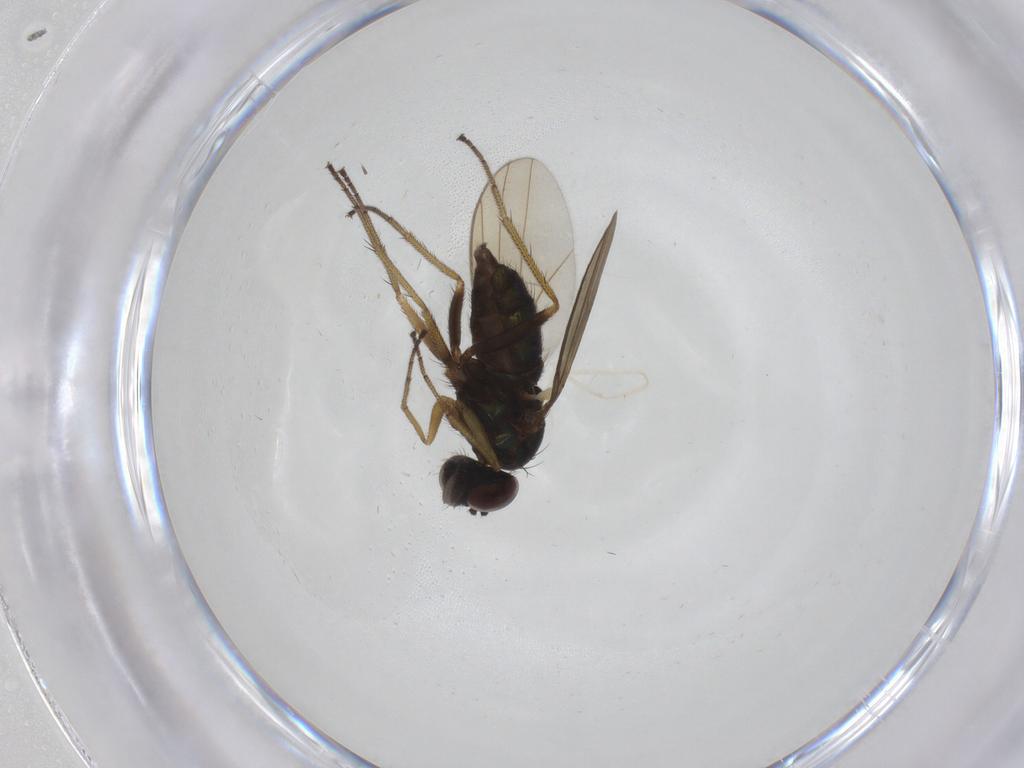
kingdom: Animalia
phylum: Arthropoda
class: Insecta
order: Diptera
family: Dolichopodidae
